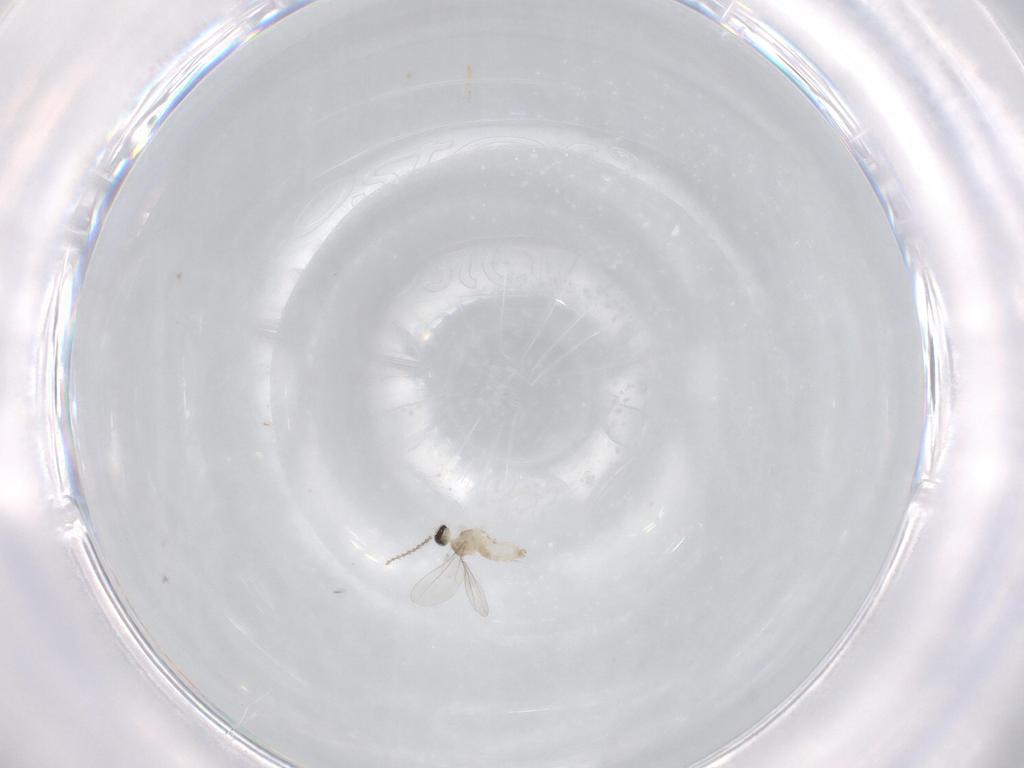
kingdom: Animalia
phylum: Arthropoda
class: Insecta
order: Diptera
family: Cecidomyiidae
